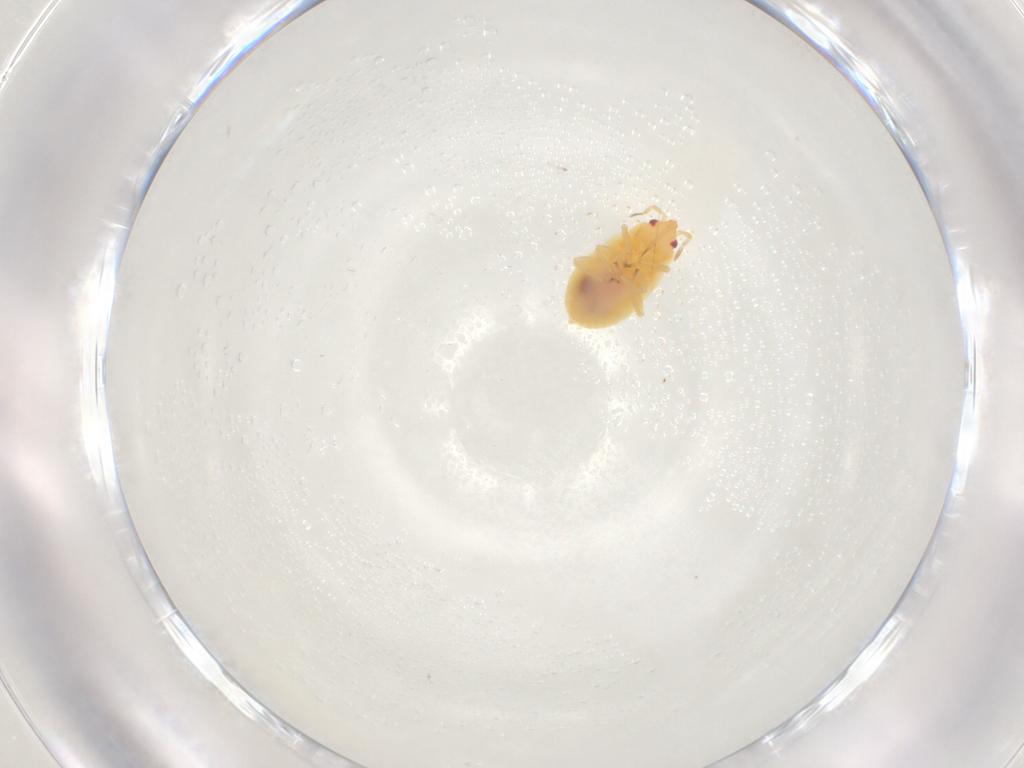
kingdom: Animalia
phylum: Arthropoda
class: Insecta
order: Hemiptera
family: Anthocoridae
